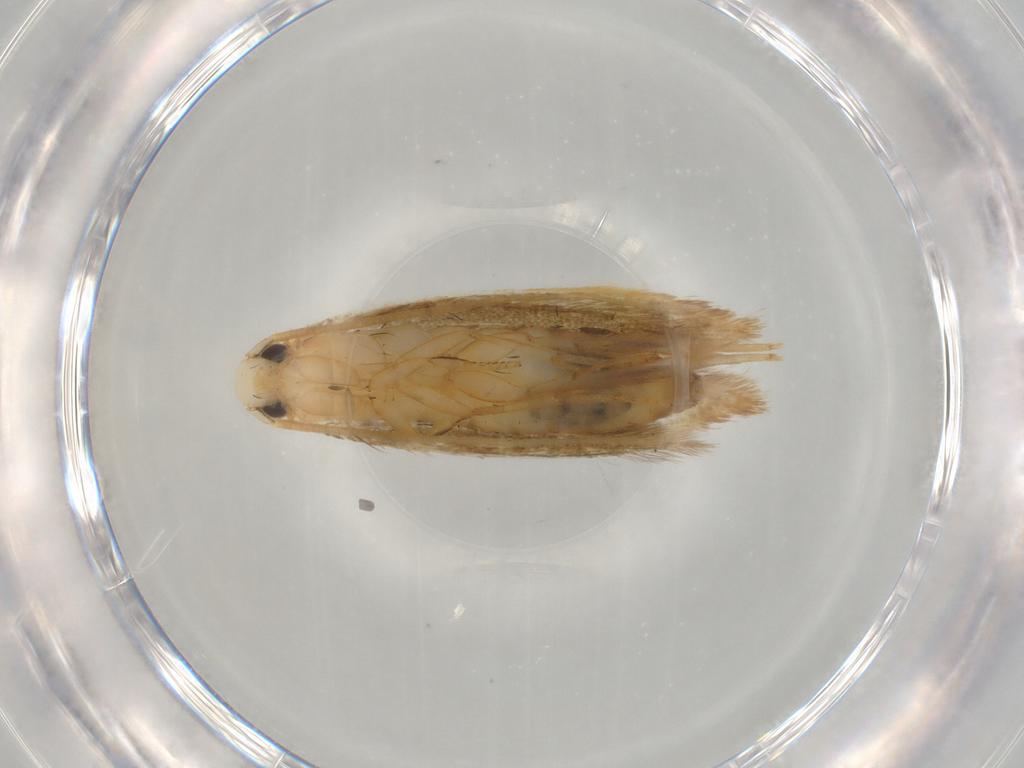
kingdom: Animalia
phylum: Arthropoda
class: Insecta
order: Lepidoptera
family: Tineidae
